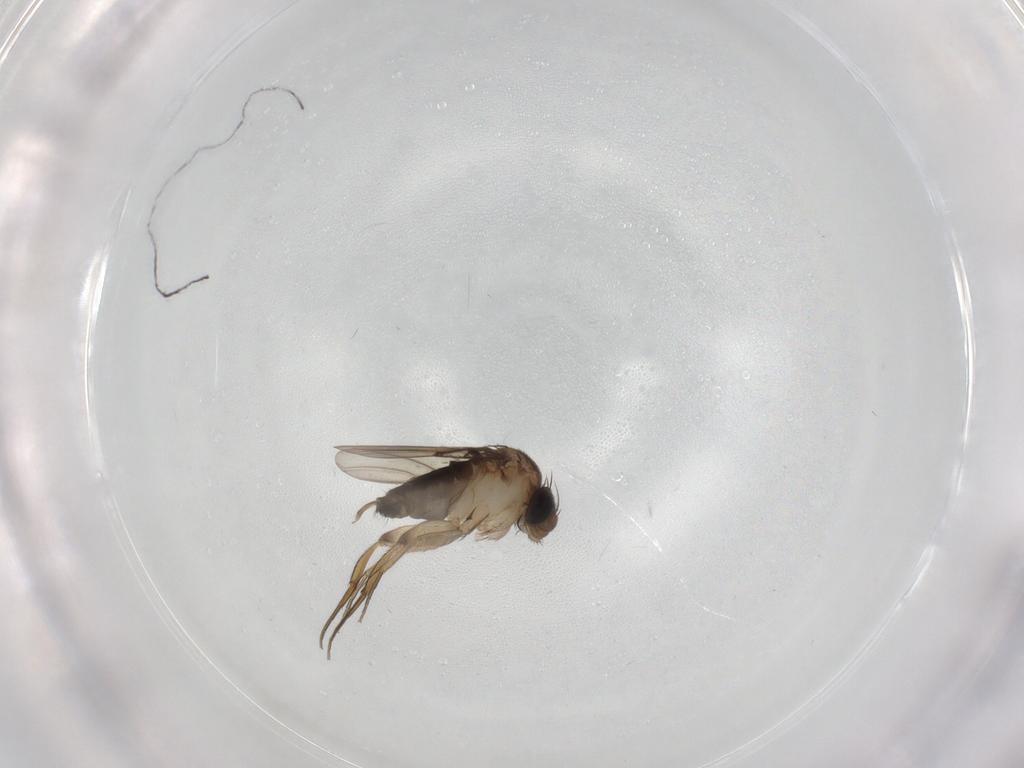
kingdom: Animalia
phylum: Arthropoda
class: Insecta
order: Diptera
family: Phoridae
